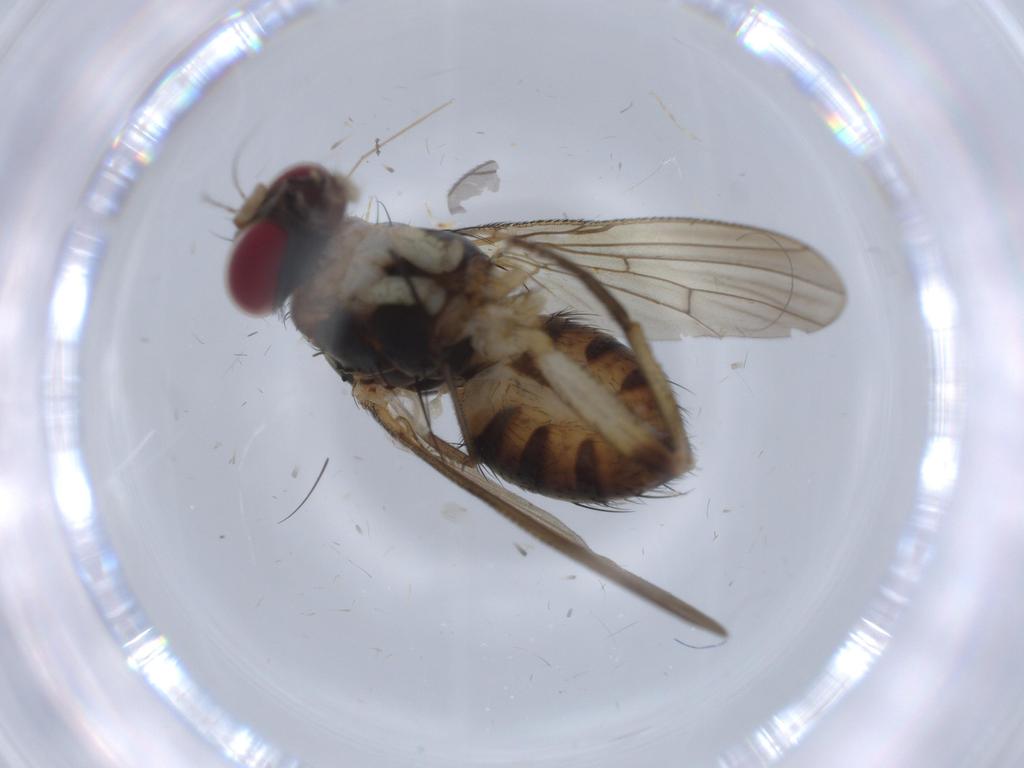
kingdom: Animalia
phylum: Arthropoda
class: Insecta
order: Diptera
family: Muscidae
